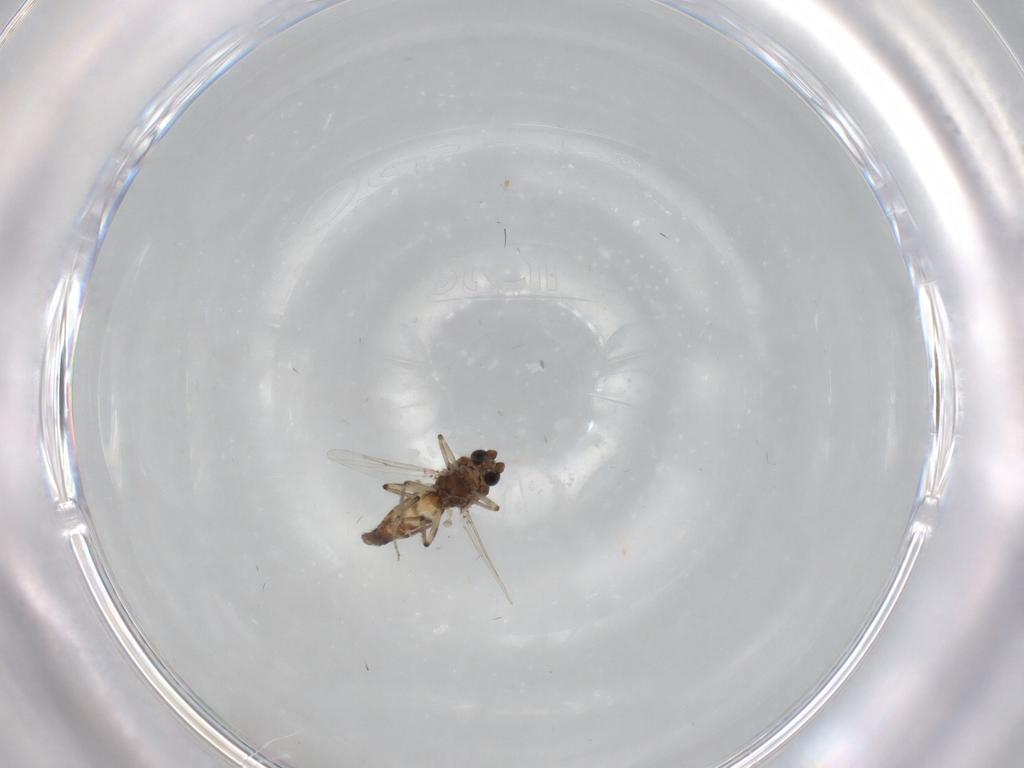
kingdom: Animalia
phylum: Arthropoda
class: Insecta
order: Diptera
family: Ceratopogonidae
